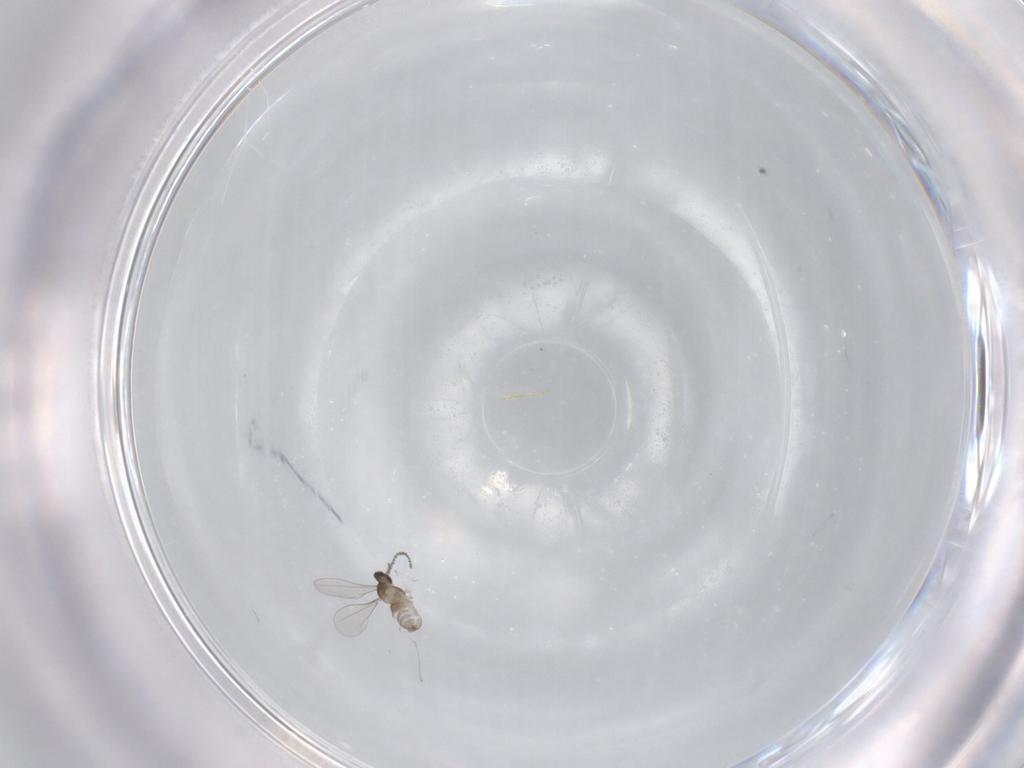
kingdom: Animalia
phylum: Arthropoda
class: Insecta
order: Diptera
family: Cecidomyiidae
